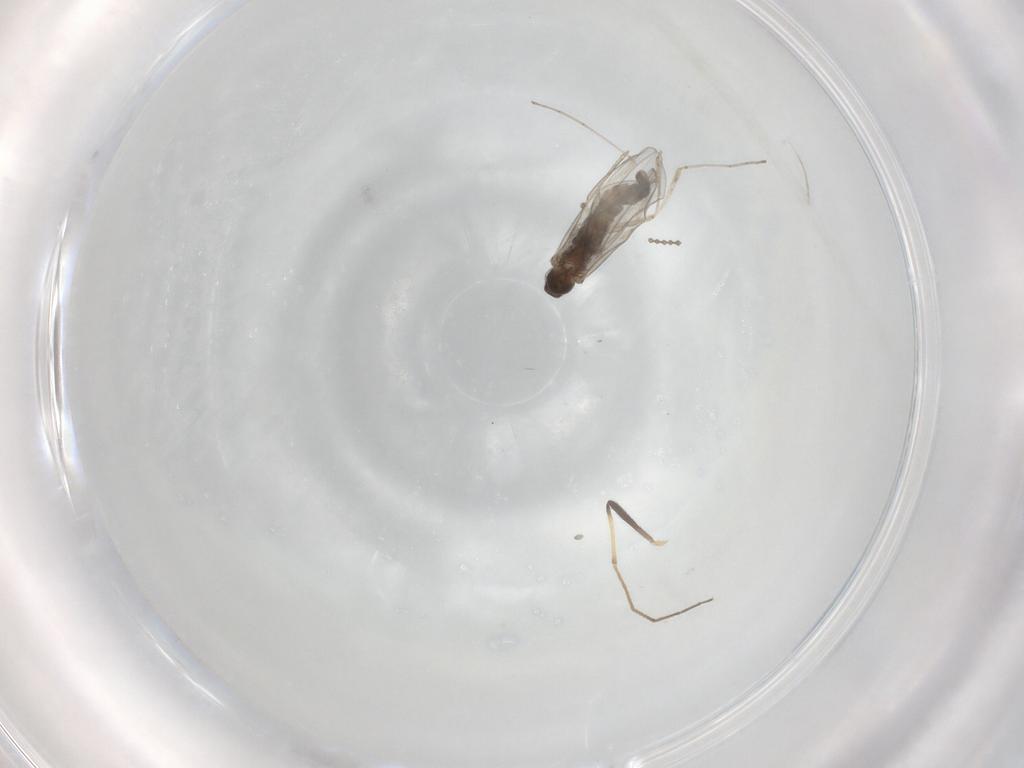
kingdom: Animalia
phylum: Arthropoda
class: Insecta
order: Diptera
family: Cecidomyiidae
